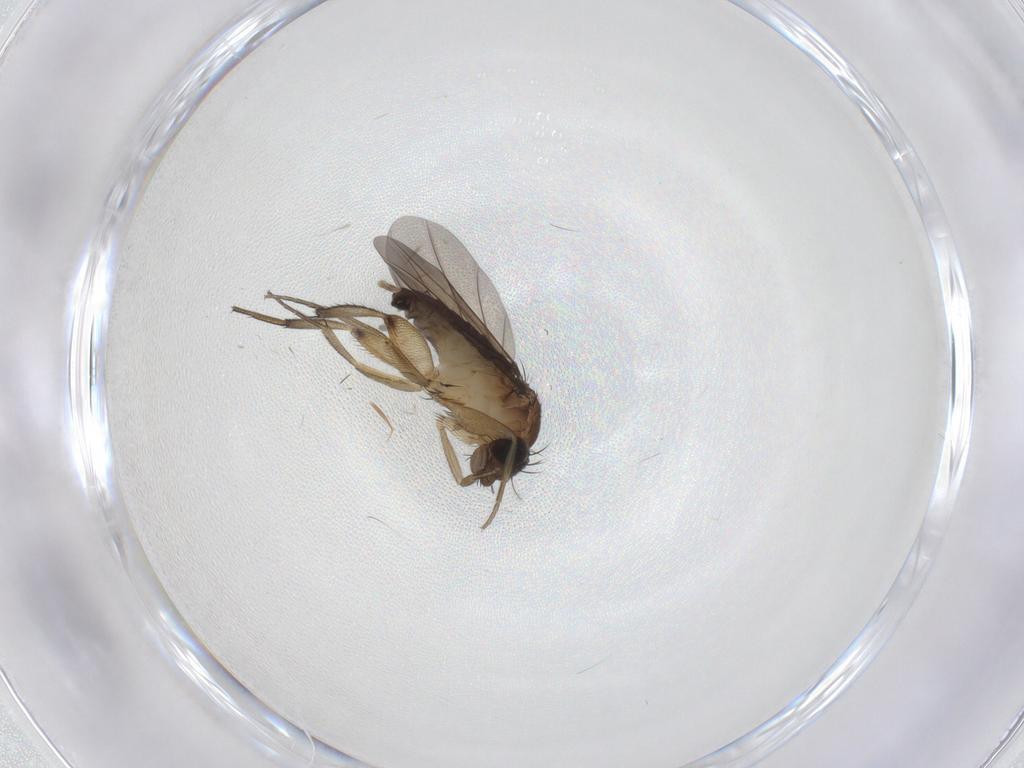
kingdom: Animalia
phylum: Arthropoda
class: Insecta
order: Diptera
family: Phoridae
